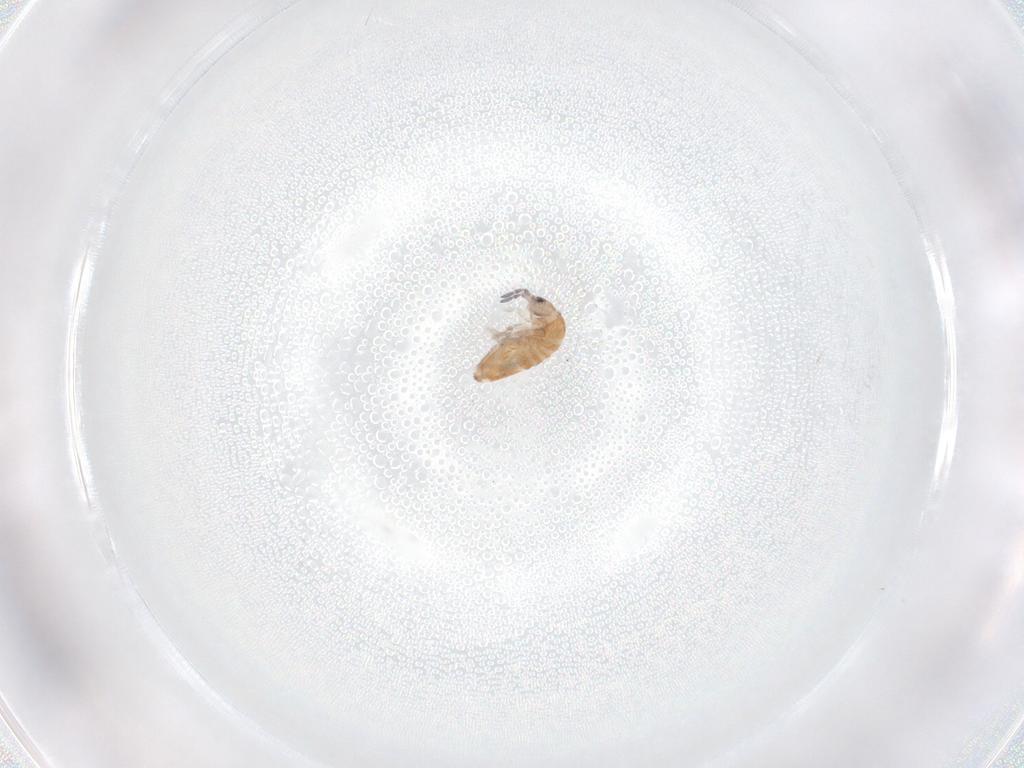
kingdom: Animalia
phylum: Arthropoda
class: Collembola
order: Entomobryomorpha
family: Entomobryidae
